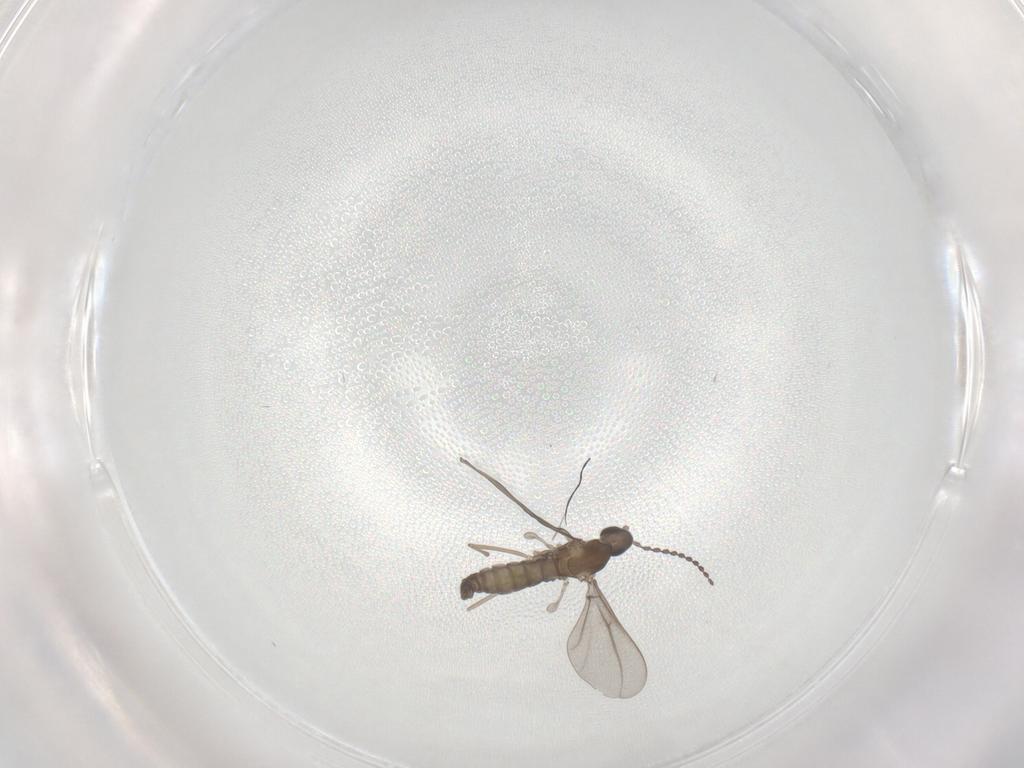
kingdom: Animalia
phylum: Arthropoda
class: Insecta
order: Diptera
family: Cecidomyiidae
